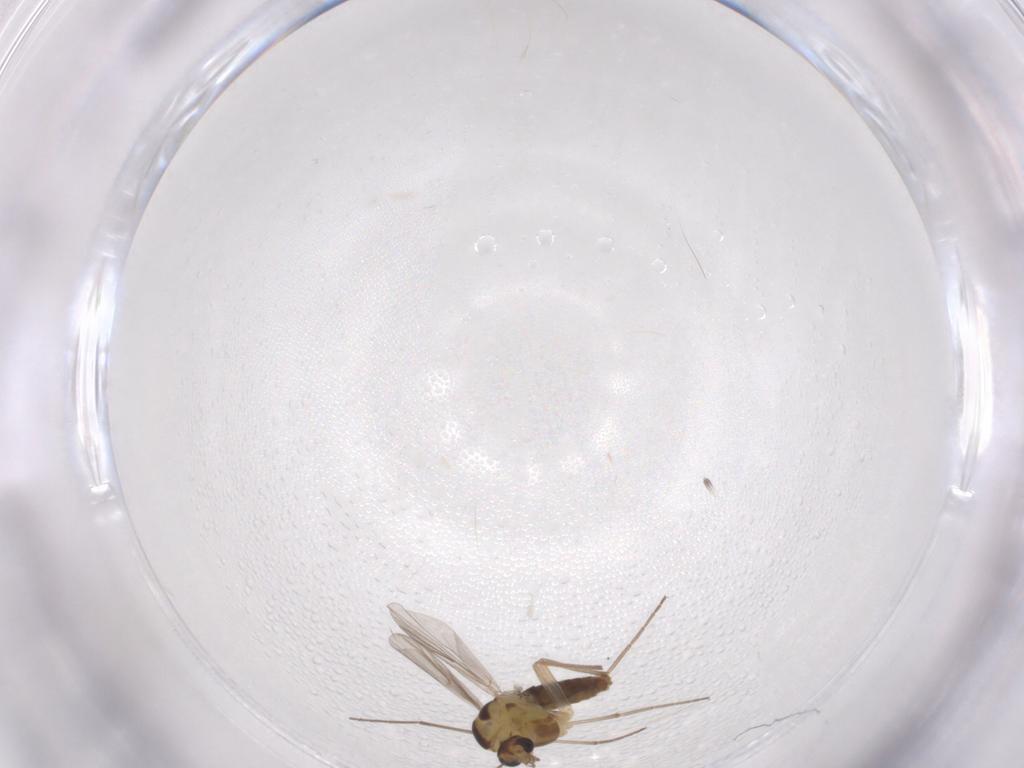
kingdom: Animalia
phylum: Arthropoda
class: Insecta
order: Diptera
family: Chironomidae
